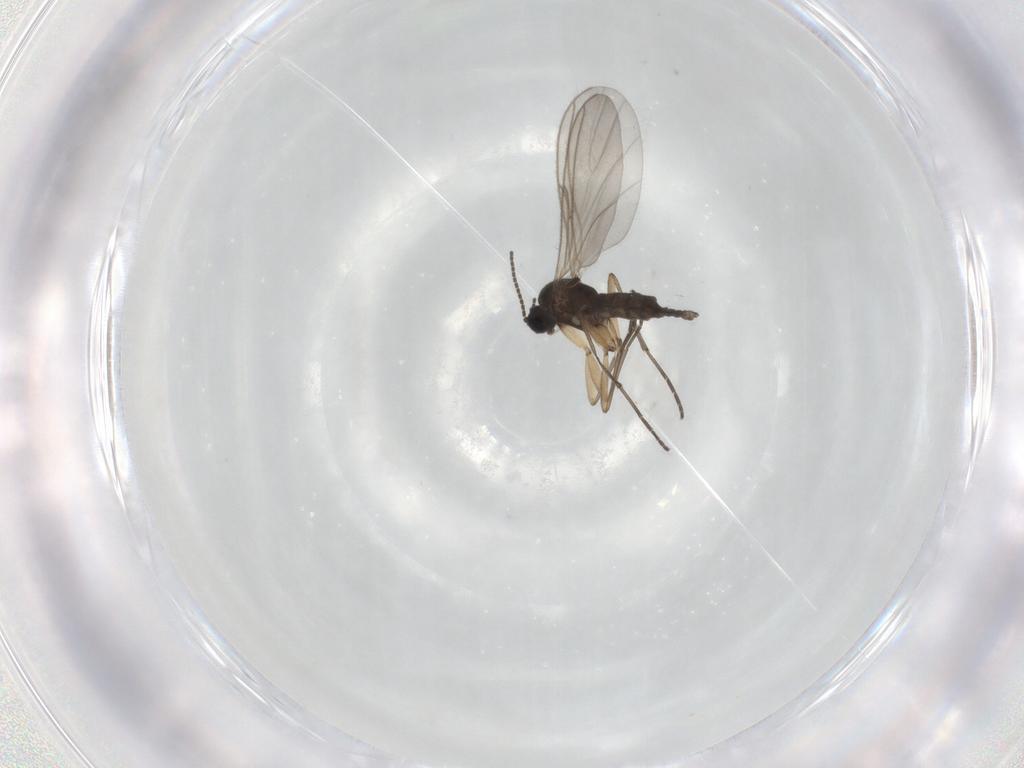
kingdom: Animalia
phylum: Arthropoda
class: Insecta
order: Diptera
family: Sciaridae
